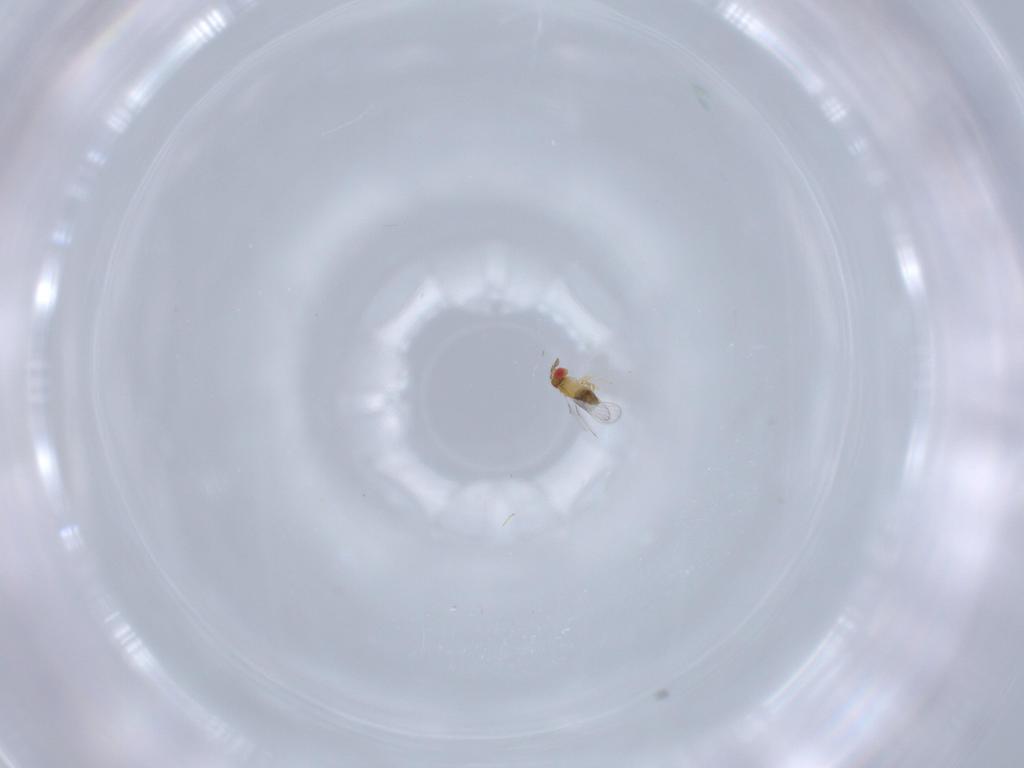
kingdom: Animalia
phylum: Arthropoda
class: Insecta
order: Hymenoptera
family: Trichogrammatidae
